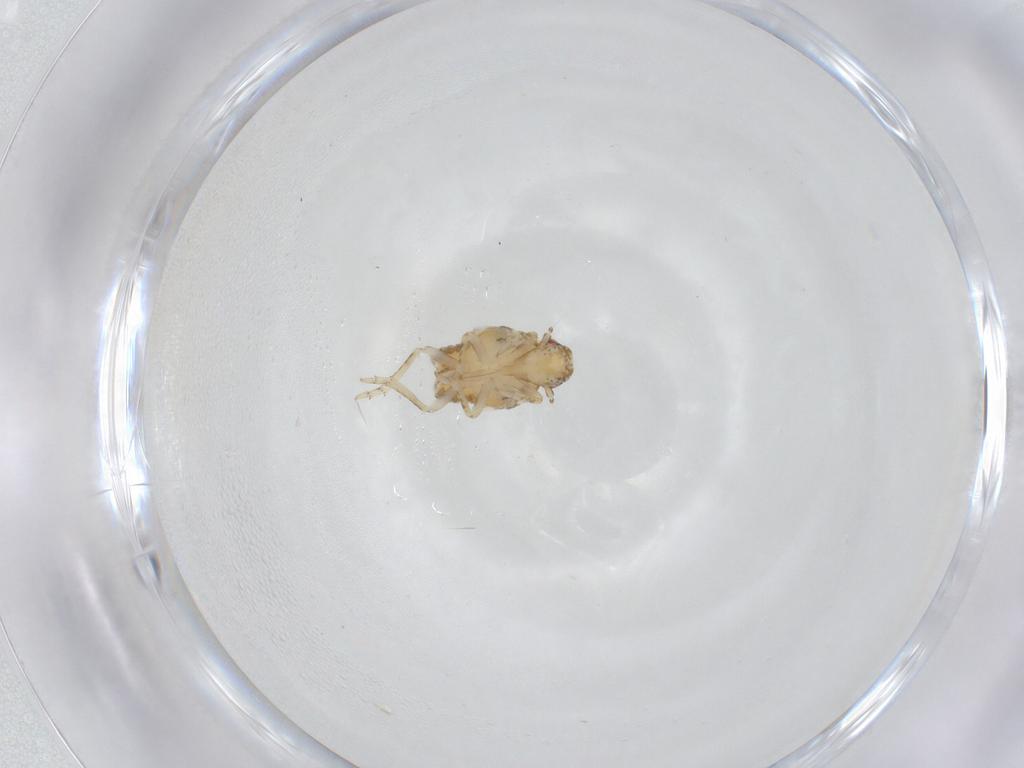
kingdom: Animalia
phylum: Arthropoda
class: Insecta
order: Hemiptera
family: Flatidae
